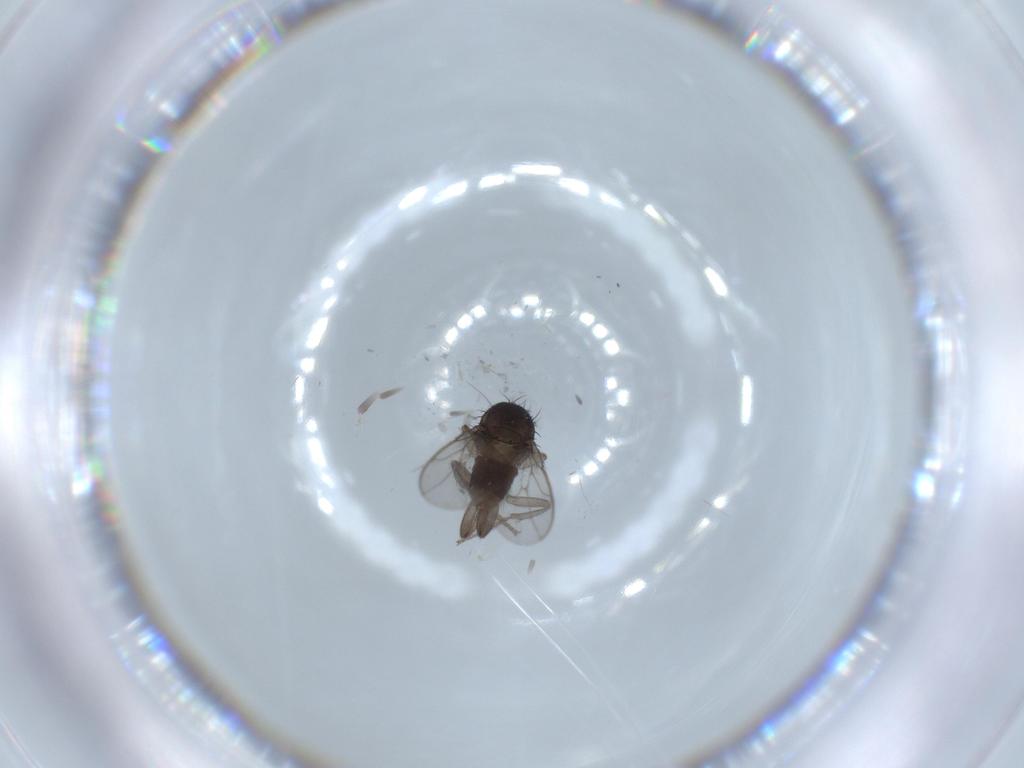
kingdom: Animalia
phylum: Arthropoda
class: Insecta
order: Diptera
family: Sphaeroceridae
